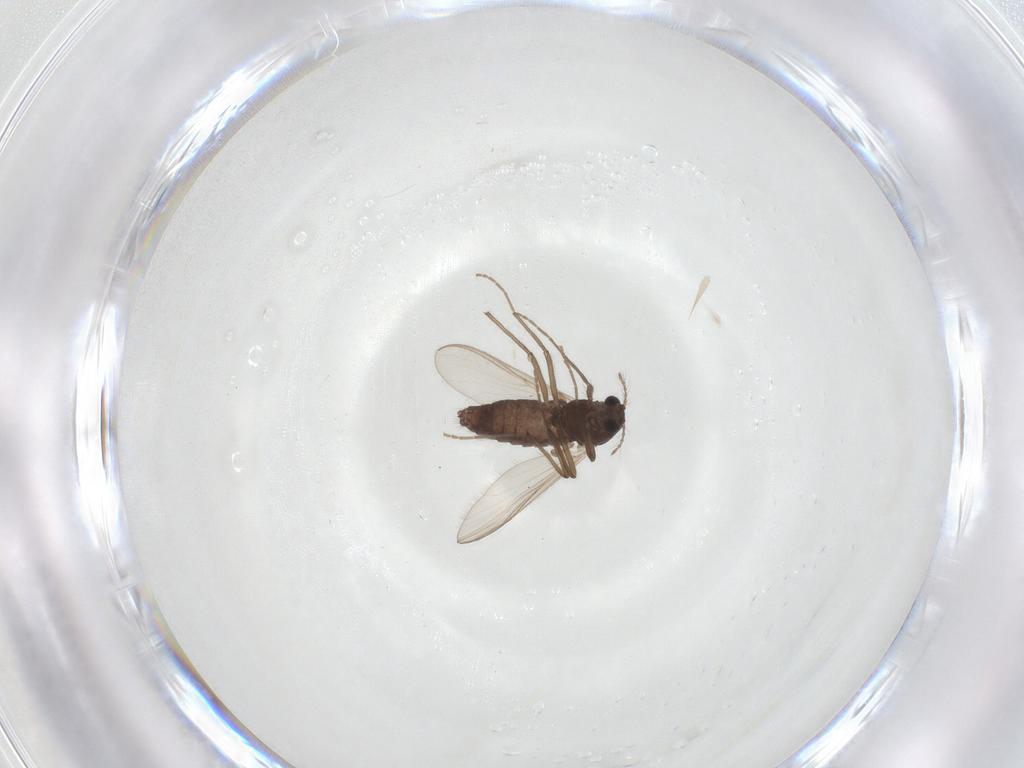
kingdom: Animalia
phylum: Arthropoda
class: Insecta
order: Diptera
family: Chironomidae
